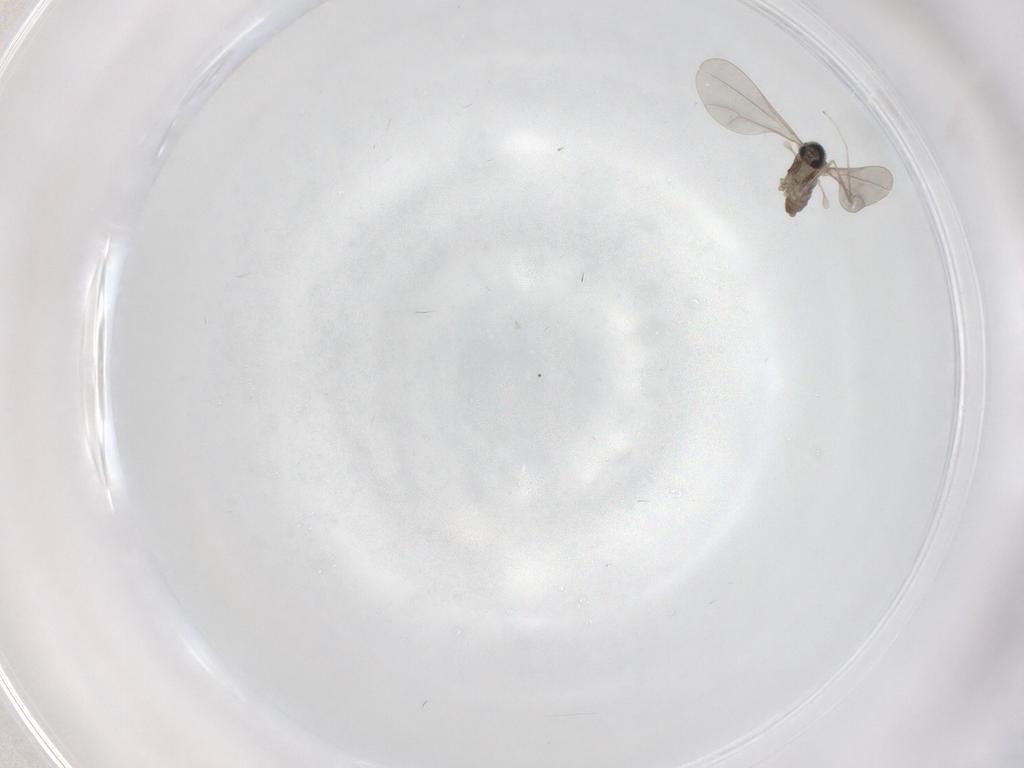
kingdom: Animalia
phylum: Arthropoda
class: Insecta
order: Diptera
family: Cecidomyiidae
